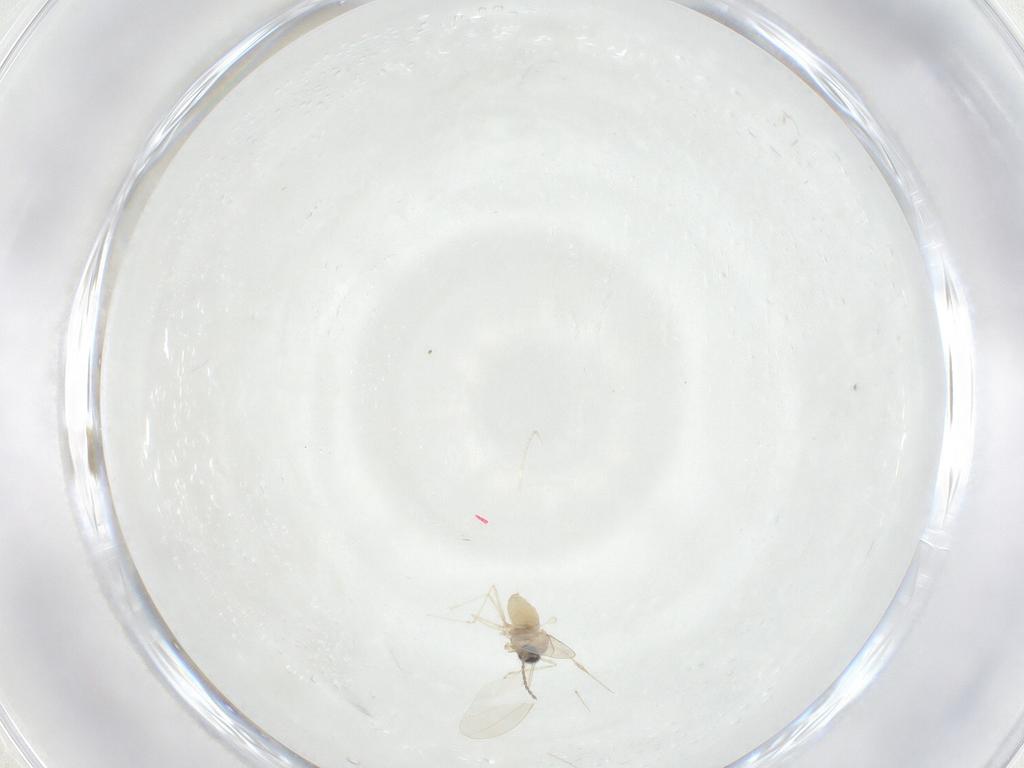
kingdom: Animalia
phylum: Arthropoda
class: Insecta
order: Diptera
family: Cecidomyiidae
